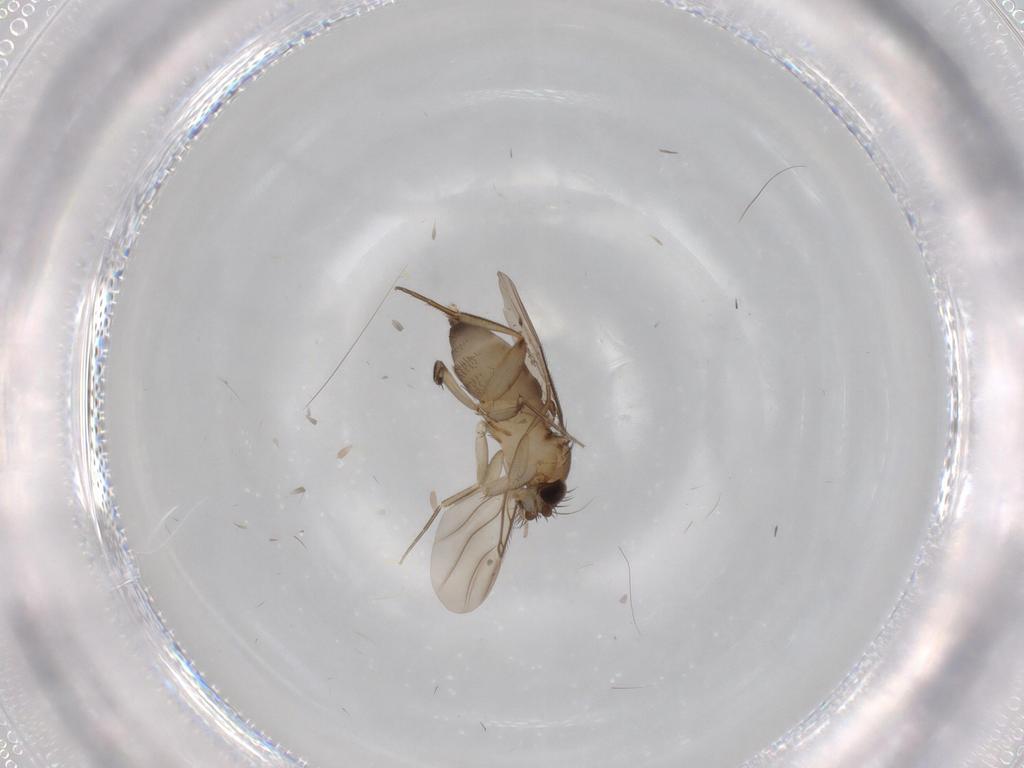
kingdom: Animalia
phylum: Arthropoda
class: Insecta
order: Diptera
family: Phoridae
